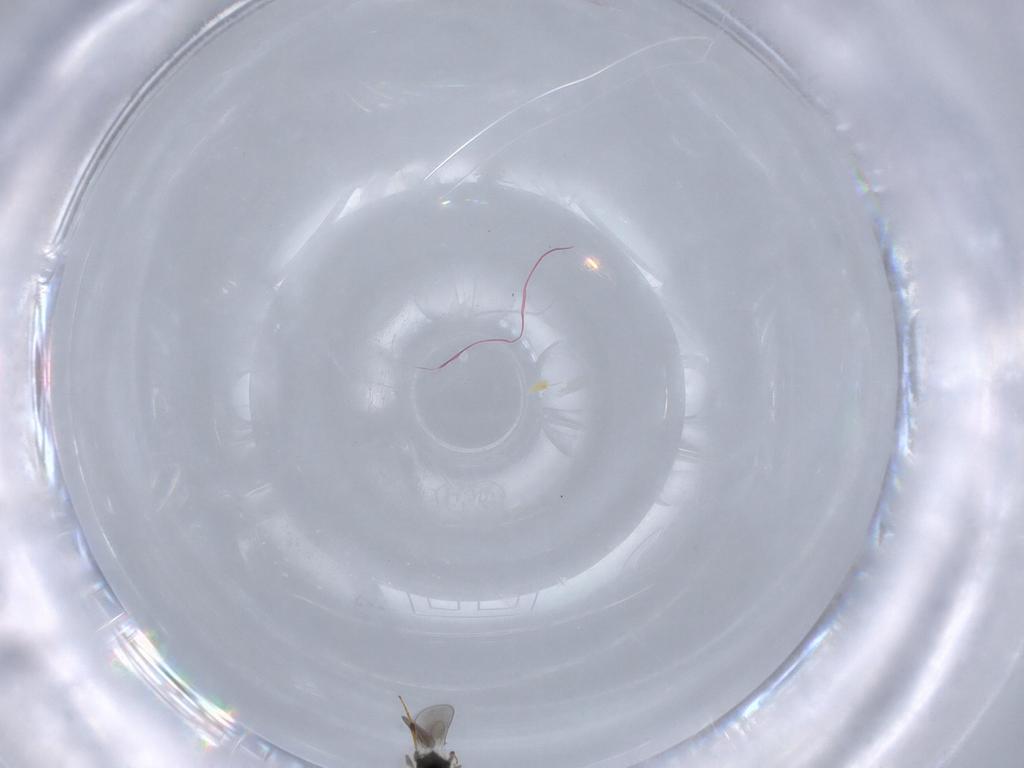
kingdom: Animalia
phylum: Arthropoda
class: Insecta
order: Hymenoptera
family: Platygastridae
